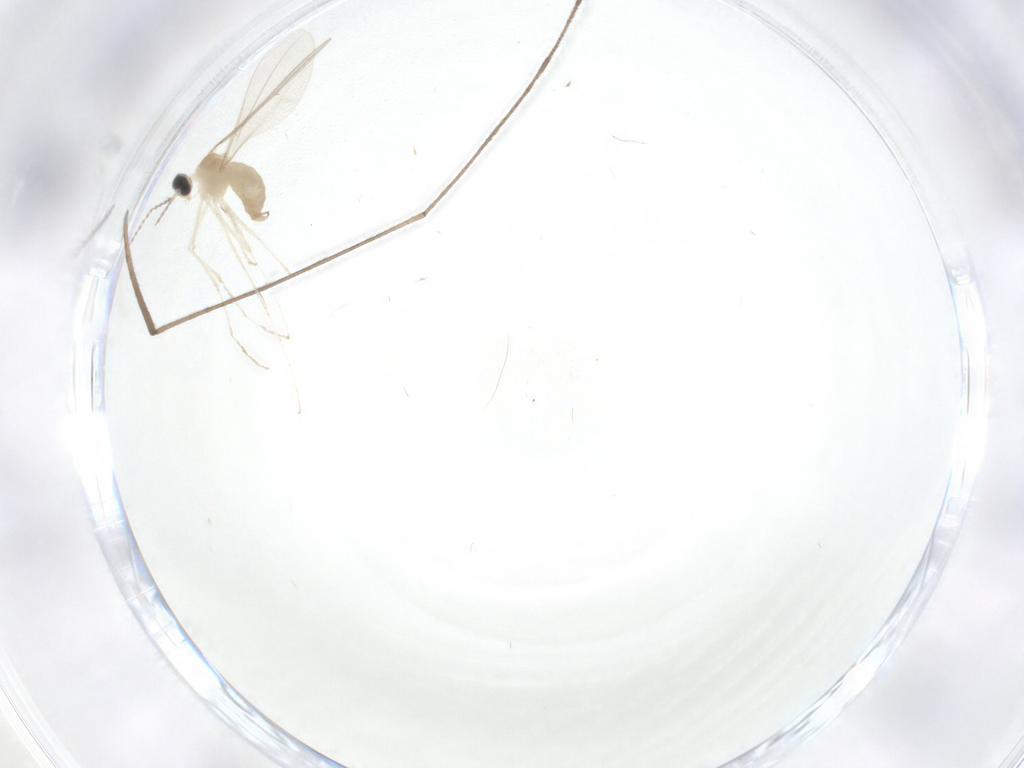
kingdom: Animalia
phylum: Arthropoda
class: Insecta
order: Diptera
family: Cecidomyiidae
